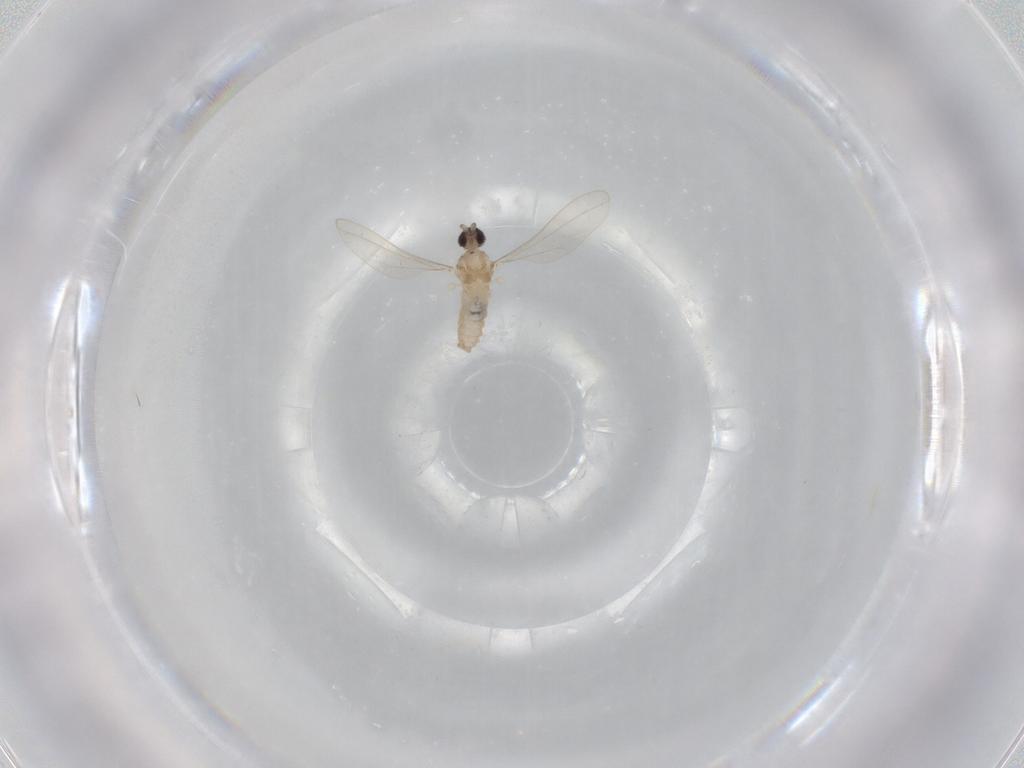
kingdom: Animalia
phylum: Arthropoda
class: Insecta
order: Diptera
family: Cecidomyiidae
